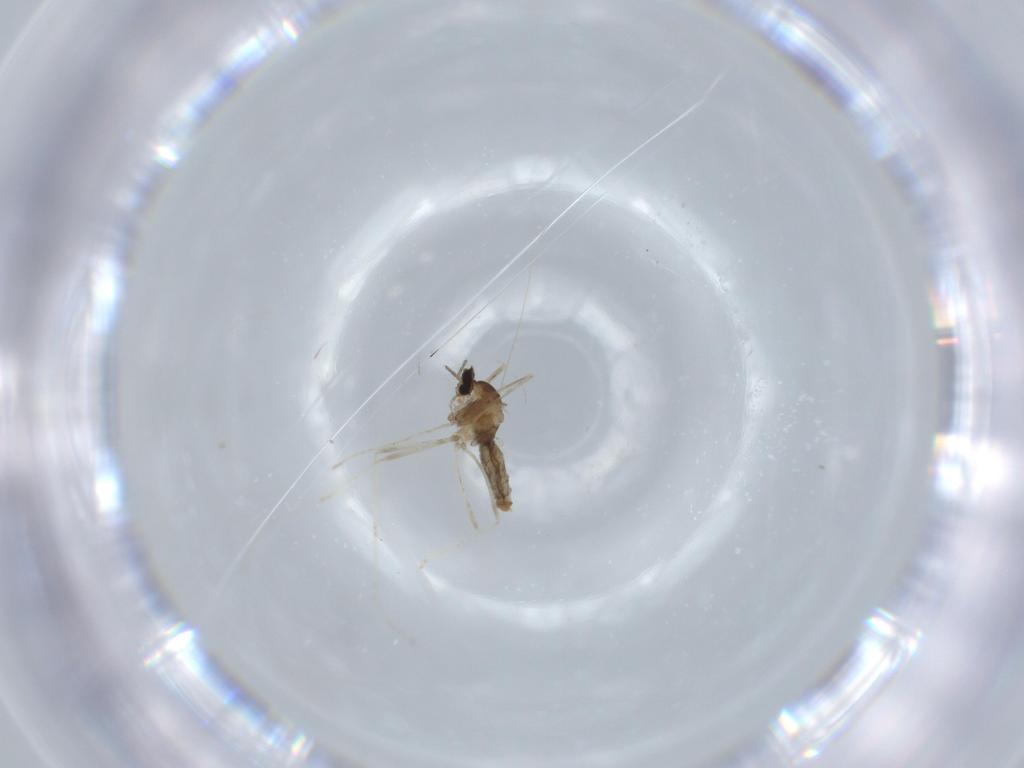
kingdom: Animalia
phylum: Arthropoda
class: Insecta
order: Diptera
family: Cecidomyiidae
